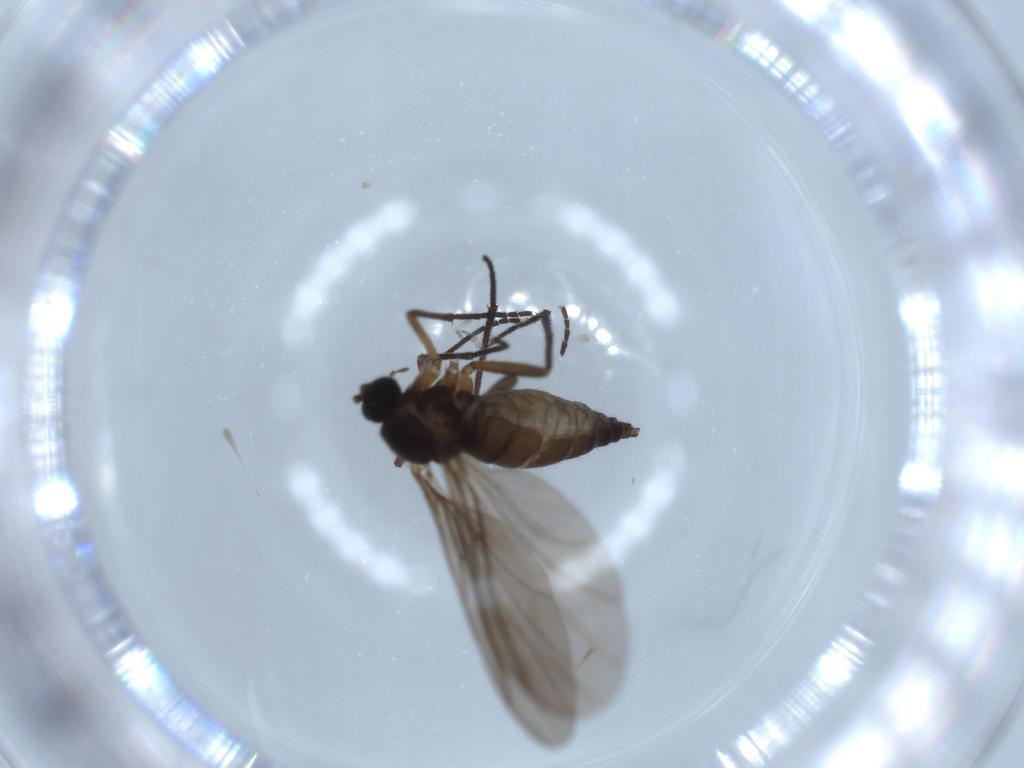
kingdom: Animalia
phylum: Arthropoda
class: Insecta
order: Diptera
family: Sciaridae
